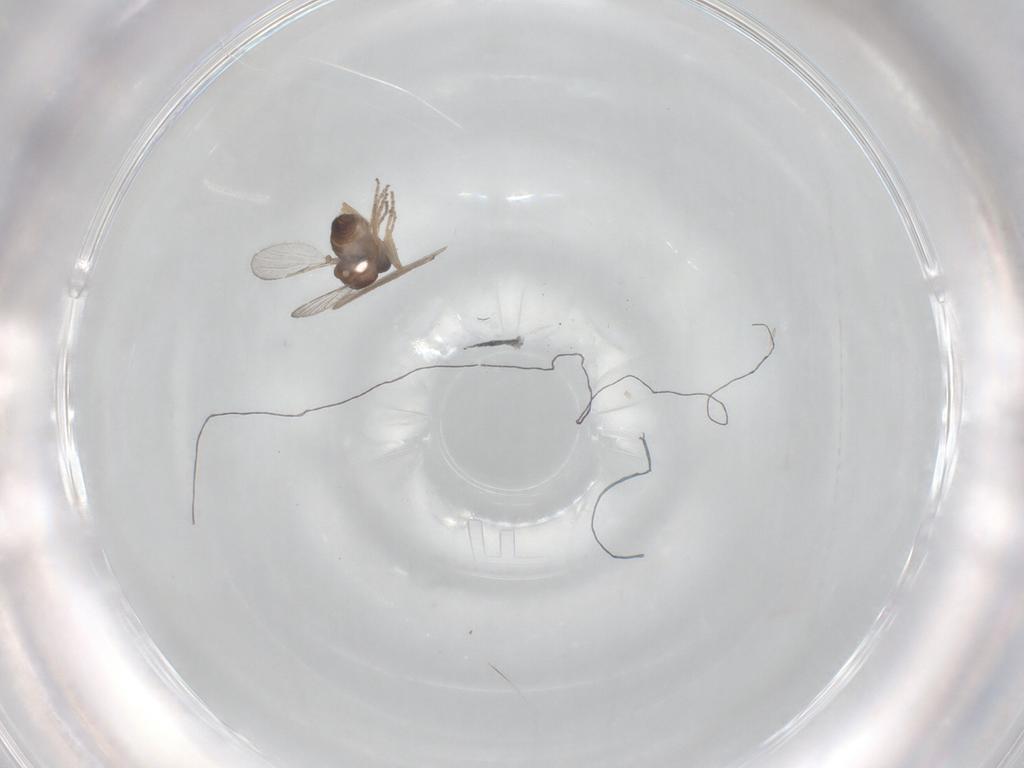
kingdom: Animalia
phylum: Arthropoda
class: Insecta
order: Diptera
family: Ceratopogonidae
